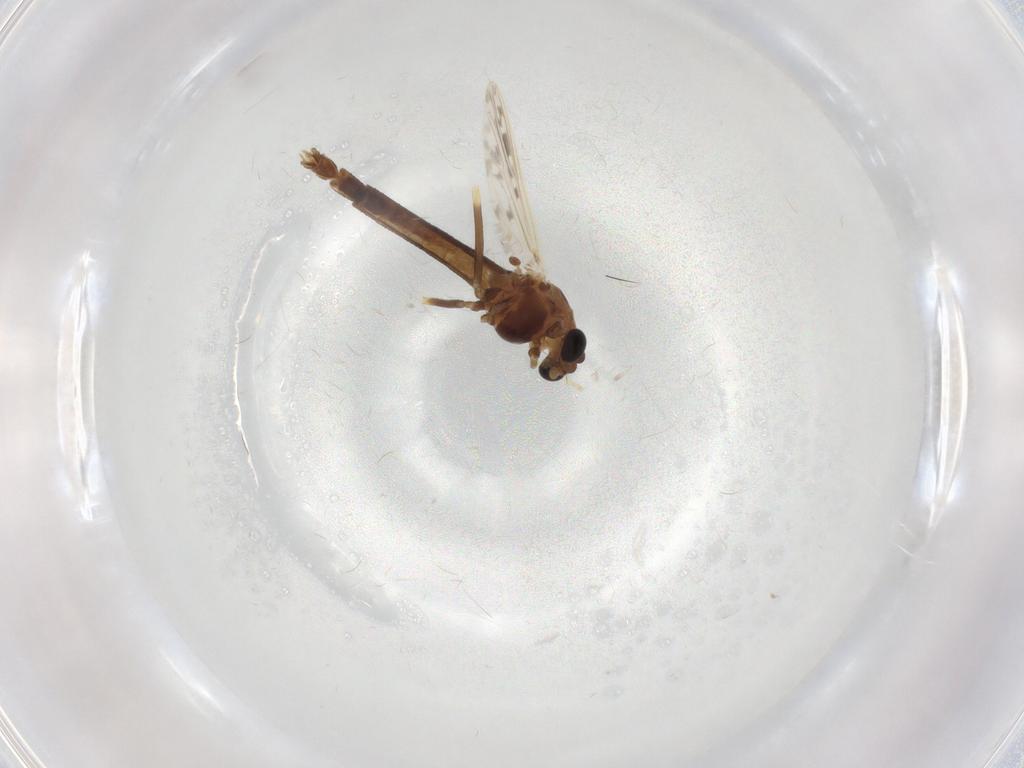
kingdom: Animalia
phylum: Arthropoda
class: Insecta
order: Diptera
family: Chironomidae
